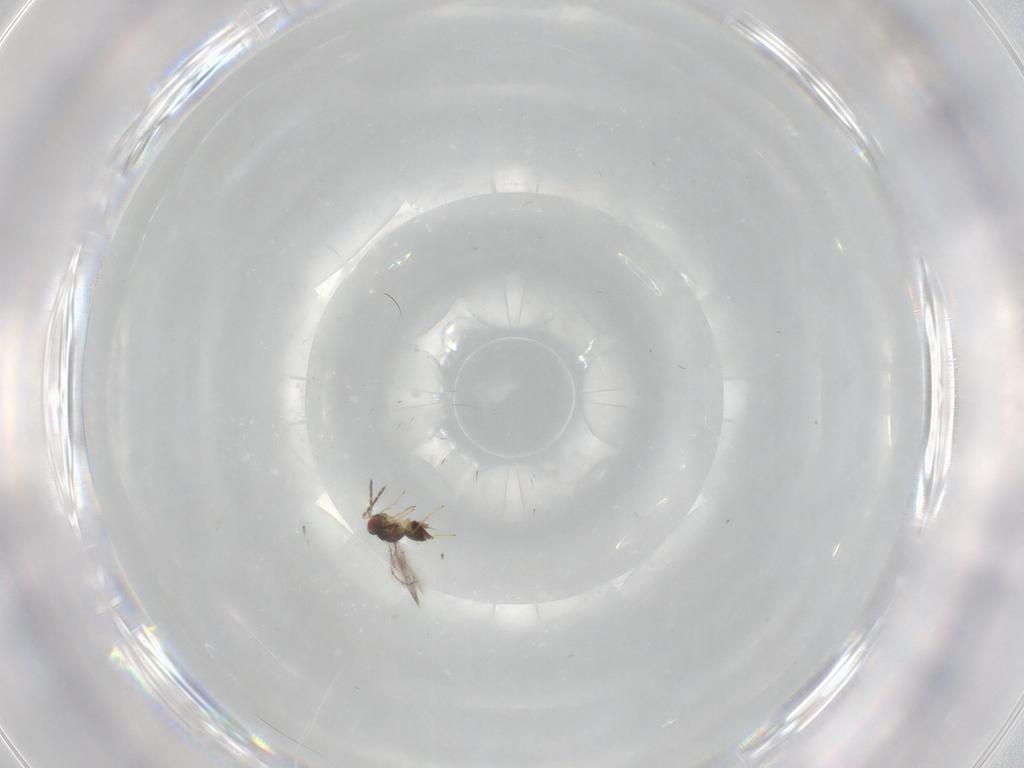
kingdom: Animalia
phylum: Arthropoda
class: Insecta
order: Hymenoptera
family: Eulophidae
